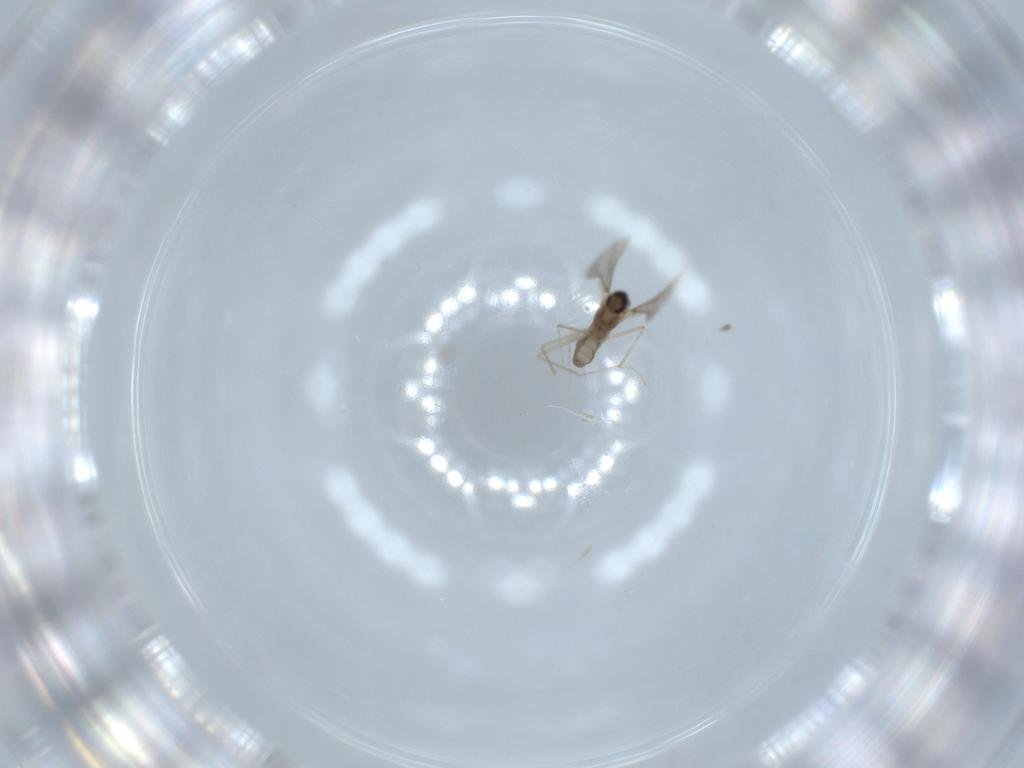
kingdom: Animalia
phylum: Arthropoda
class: Insecta
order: Diptera
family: Cecidomyiidae
